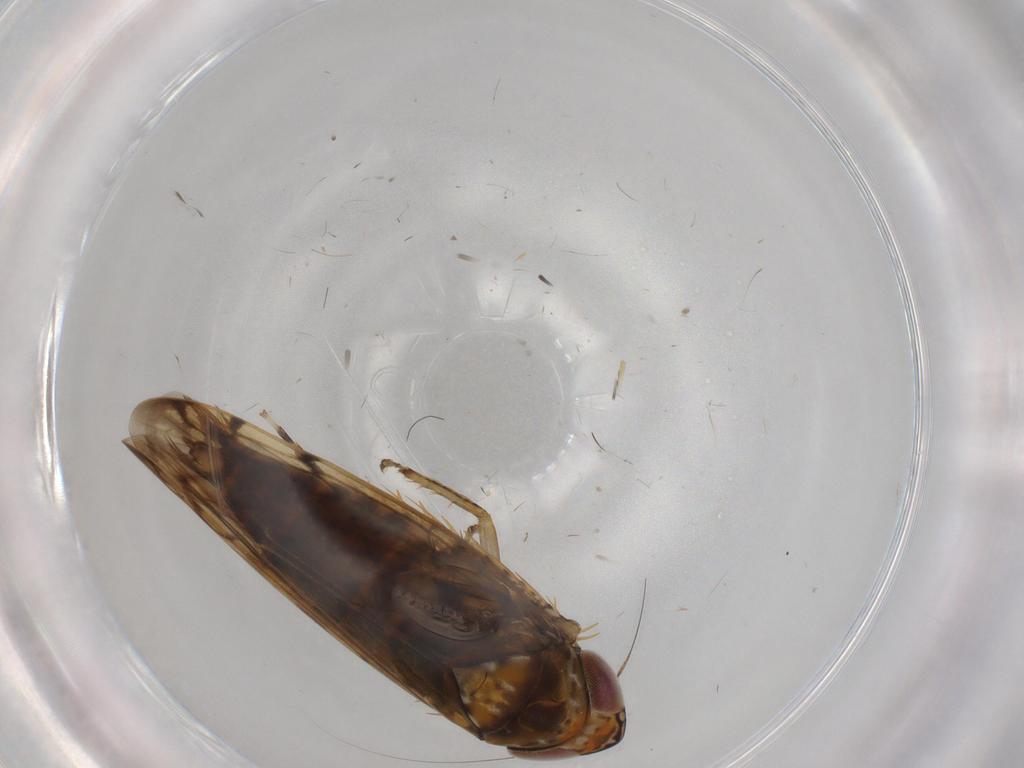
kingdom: Animalia
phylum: Arthropoda
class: Insecta
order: Hemiptera
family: Cicadellidae
